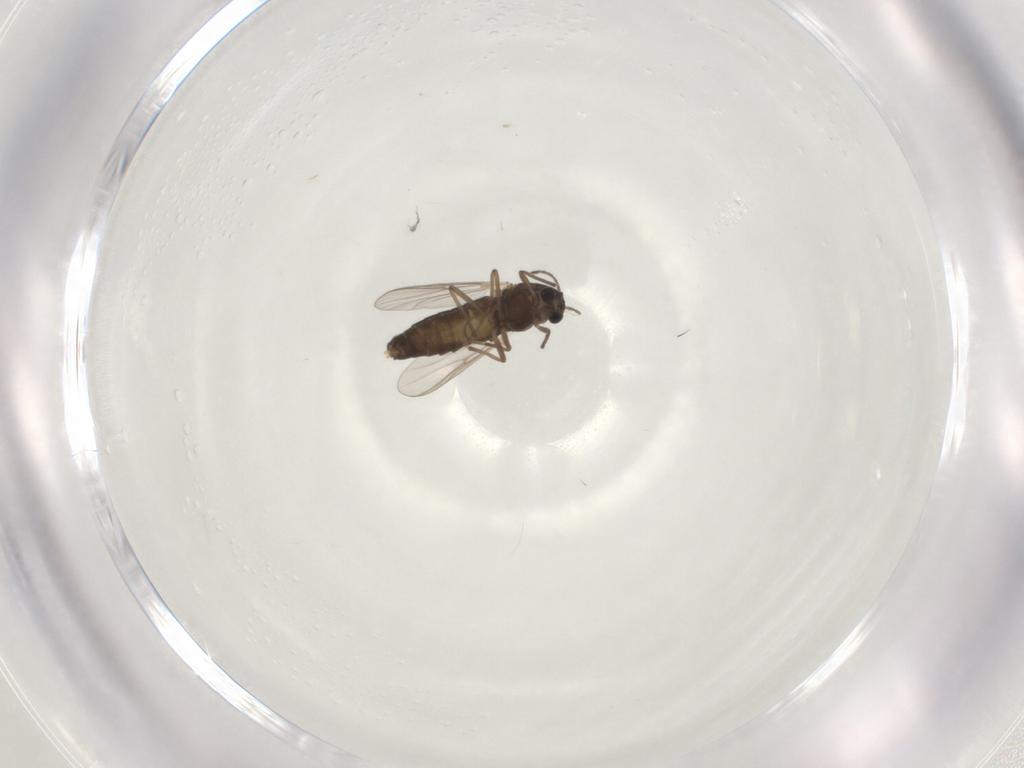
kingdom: Animalia
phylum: Arthropoda
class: Insecta
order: Diptera
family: Chironomidae
